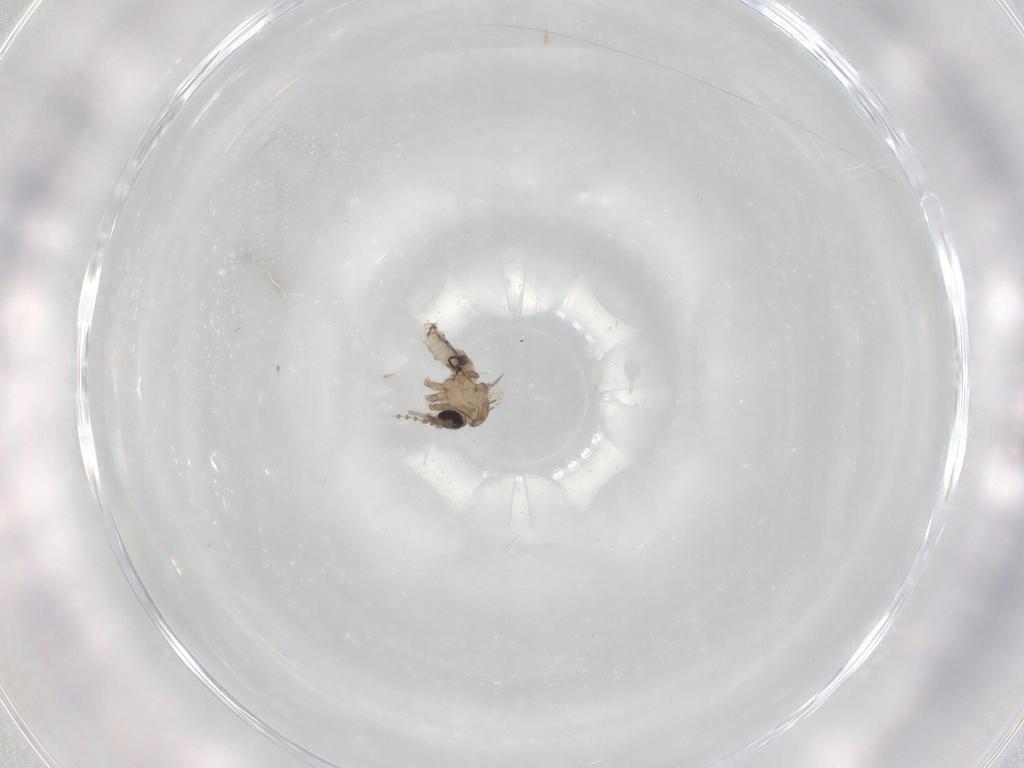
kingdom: Animalia
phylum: Arthropoda
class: Insecta
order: Diptera
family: Psychodidae
